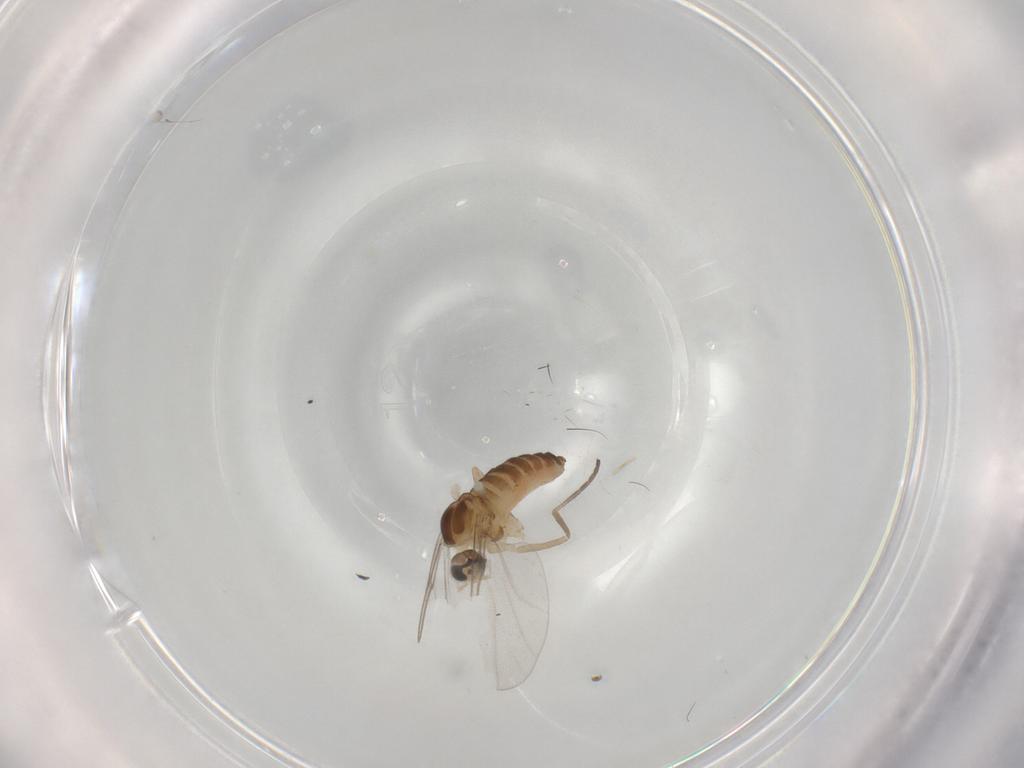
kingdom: Animalia
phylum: Arthropoda
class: Insecta
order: Diptera
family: Cecidomyiidae
